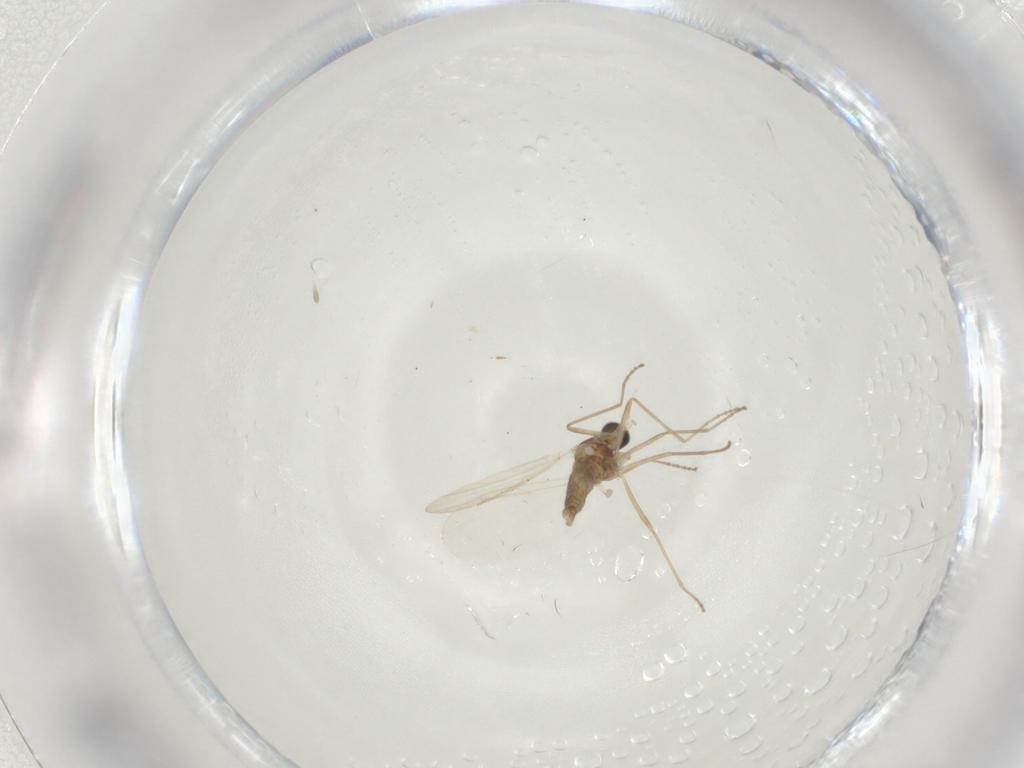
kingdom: Animalia
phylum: Arthropoda
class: Insecta
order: Diptera
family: Cecidomyiidae
